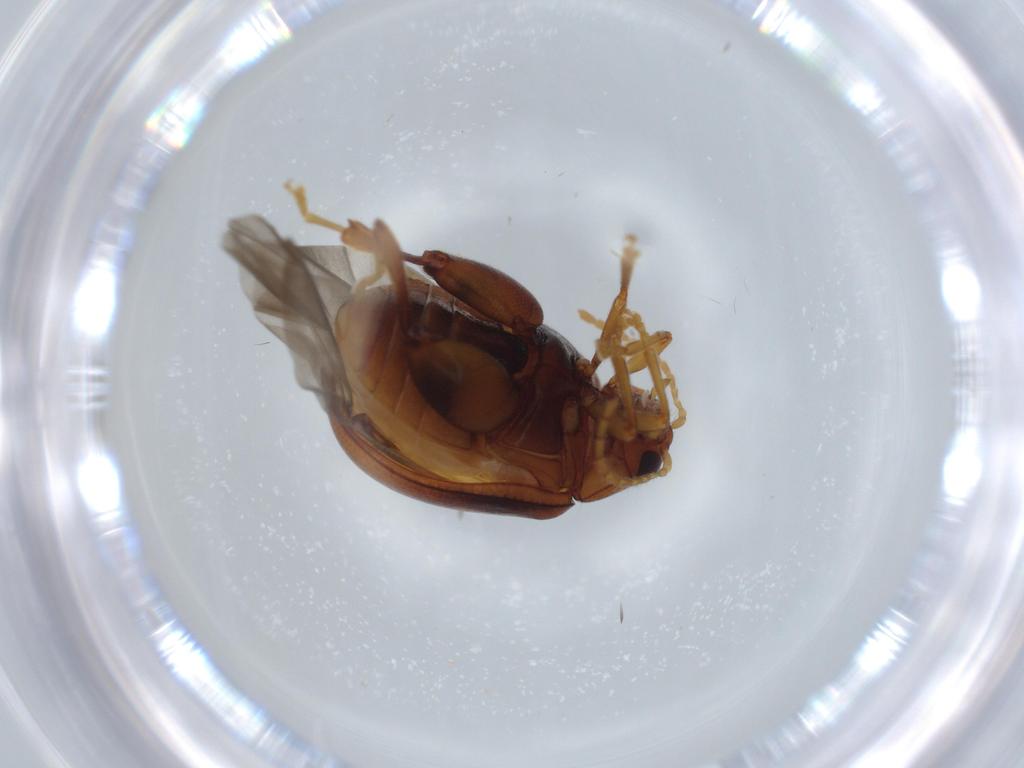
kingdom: Animalia
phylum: Arthropoda
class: Insecta
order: Coleoptera
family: Chrysomelidae
